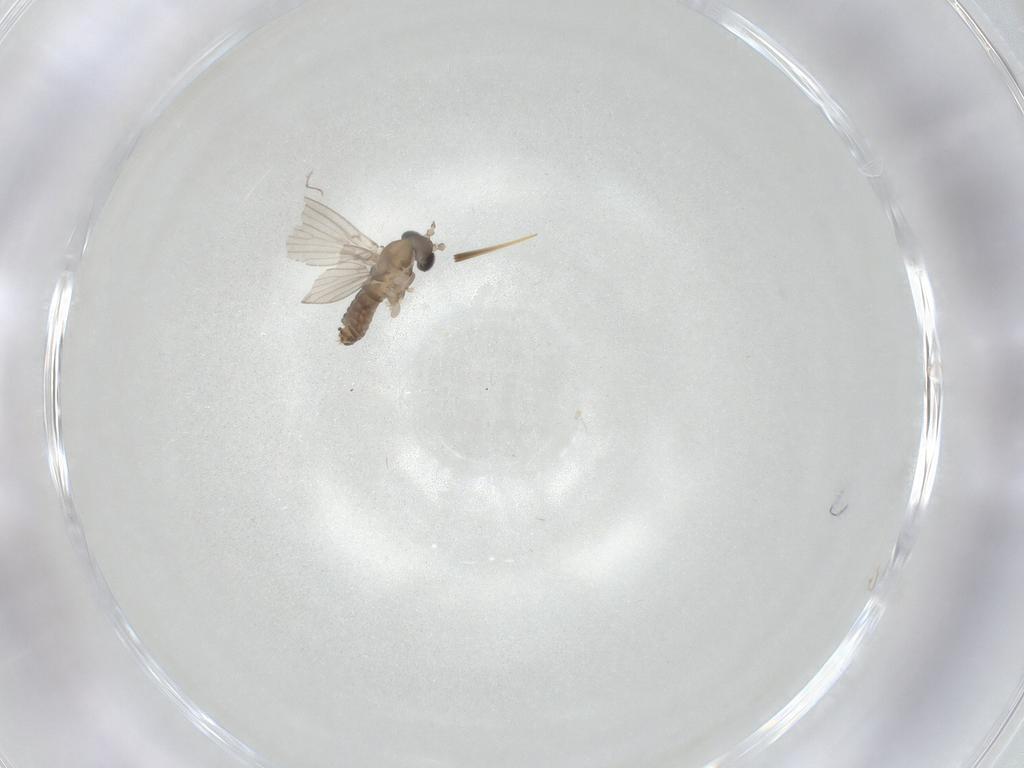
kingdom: Animalia
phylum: Arthropoda
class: Insecta
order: Diptera
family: Psychodidae
